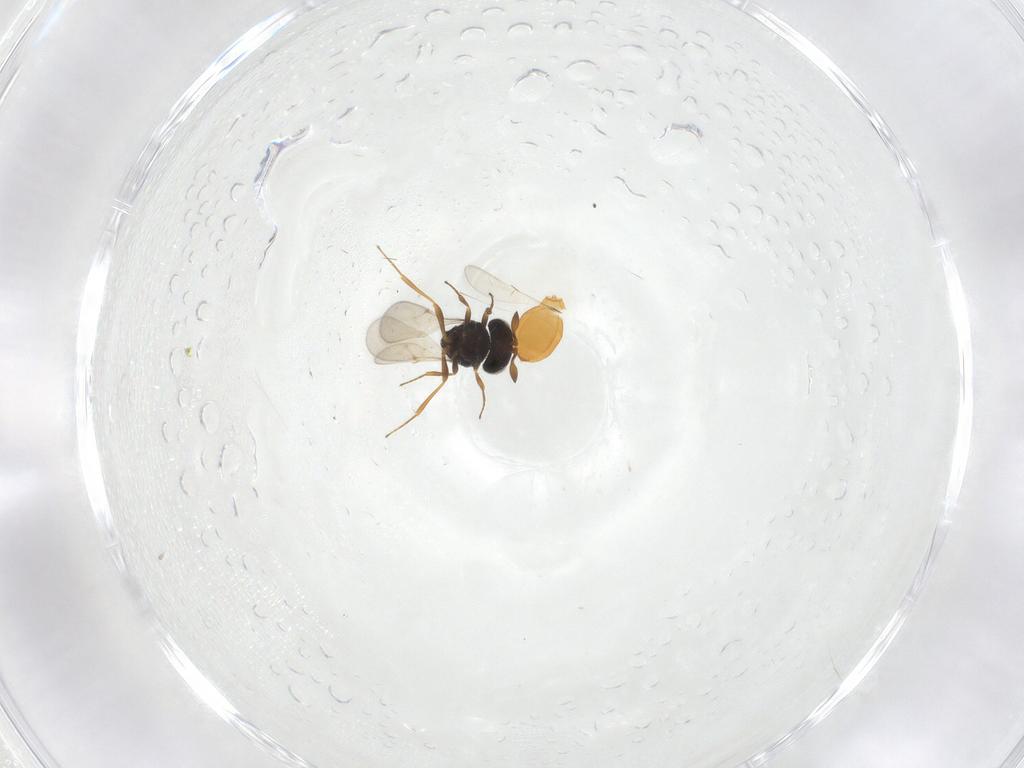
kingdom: Animalia
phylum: Arthropoda
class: Insecta
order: Hymenoptera
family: Scelionidae
